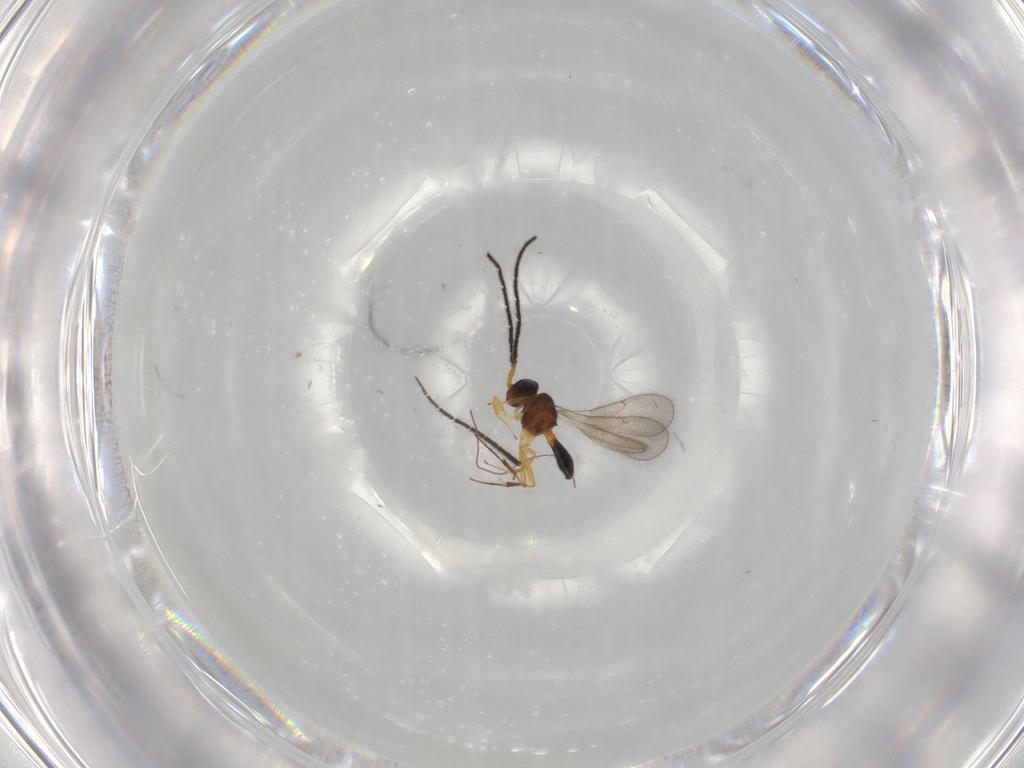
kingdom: Animalia
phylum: Arthropoda
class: Insecta
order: Hymenoptera
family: Scelionidae
